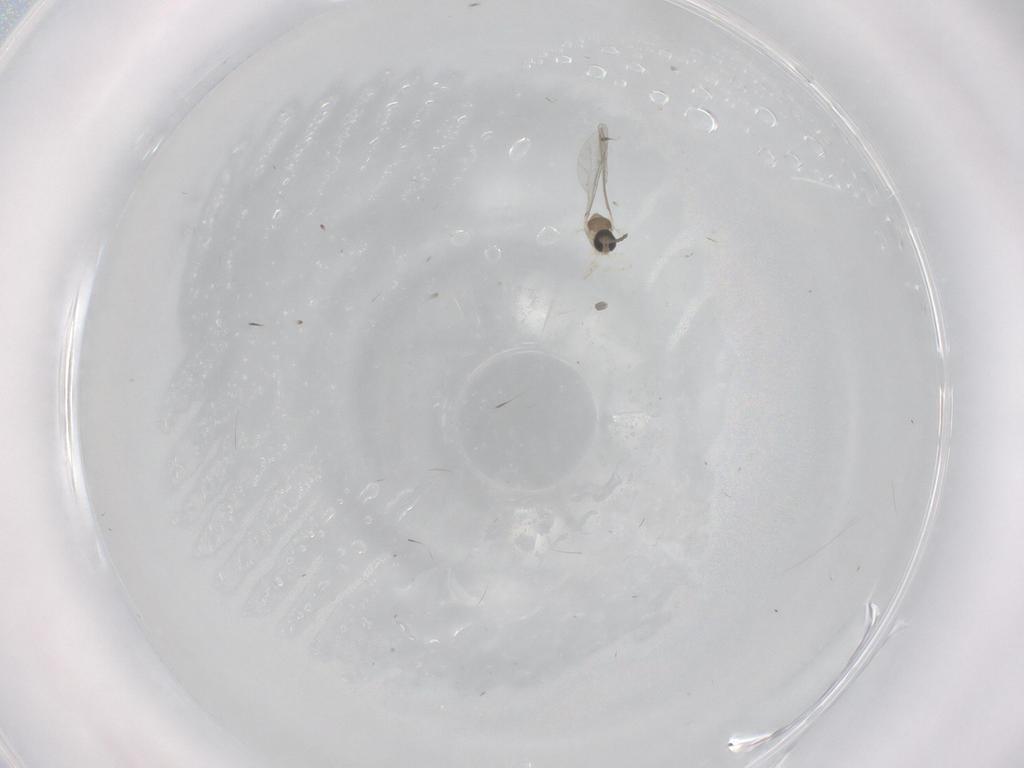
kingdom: Animalia
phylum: Arthropoda
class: Insecta
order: Diptera
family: Cecidomyiidae
